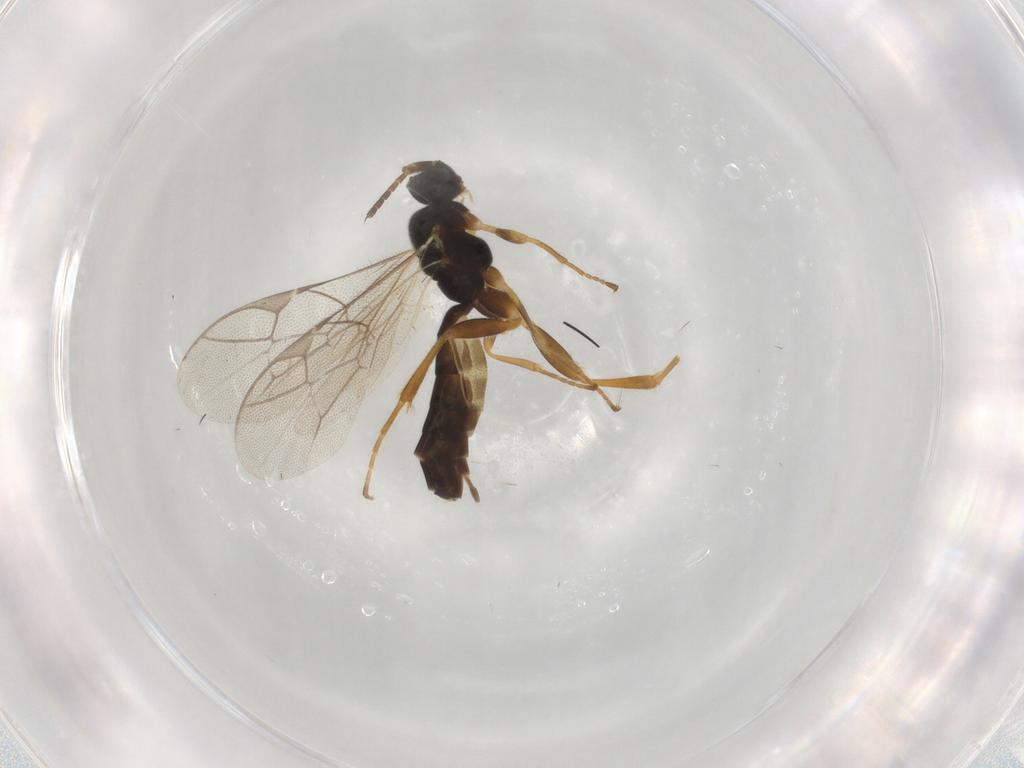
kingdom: Animalia
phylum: Arthropoda
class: Insecta
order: Hymenoptera
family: Ichneumonidae
